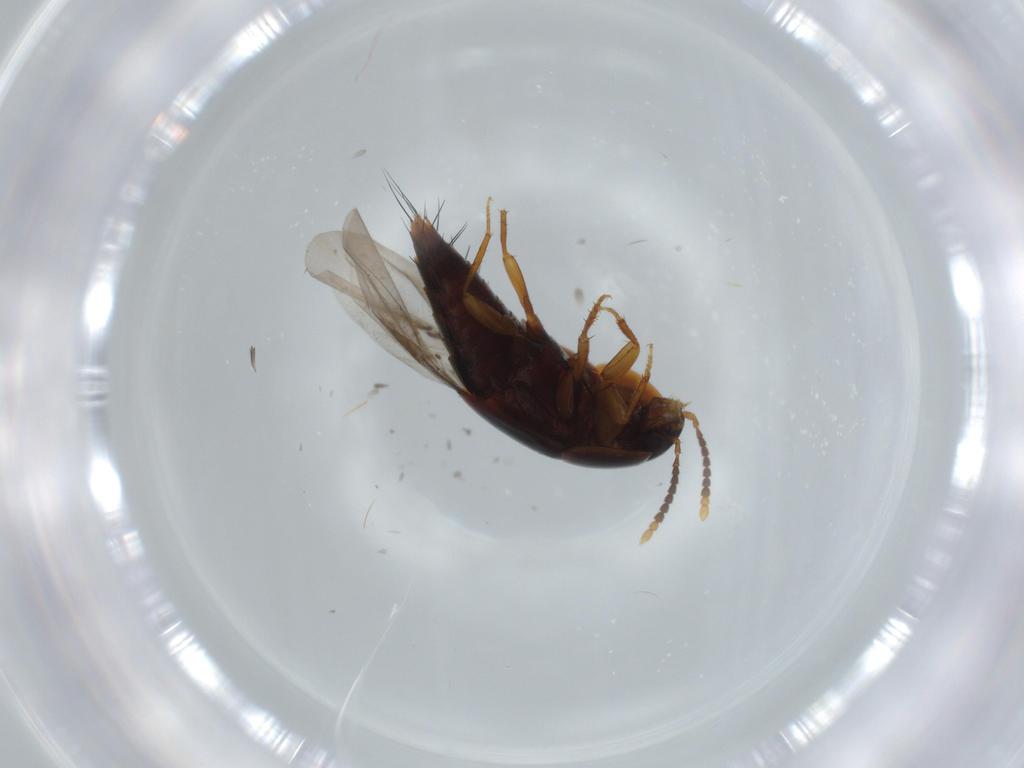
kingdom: Animalia
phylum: Arthropoda
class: Insecta
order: Coleoptera
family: Staphylinidae
